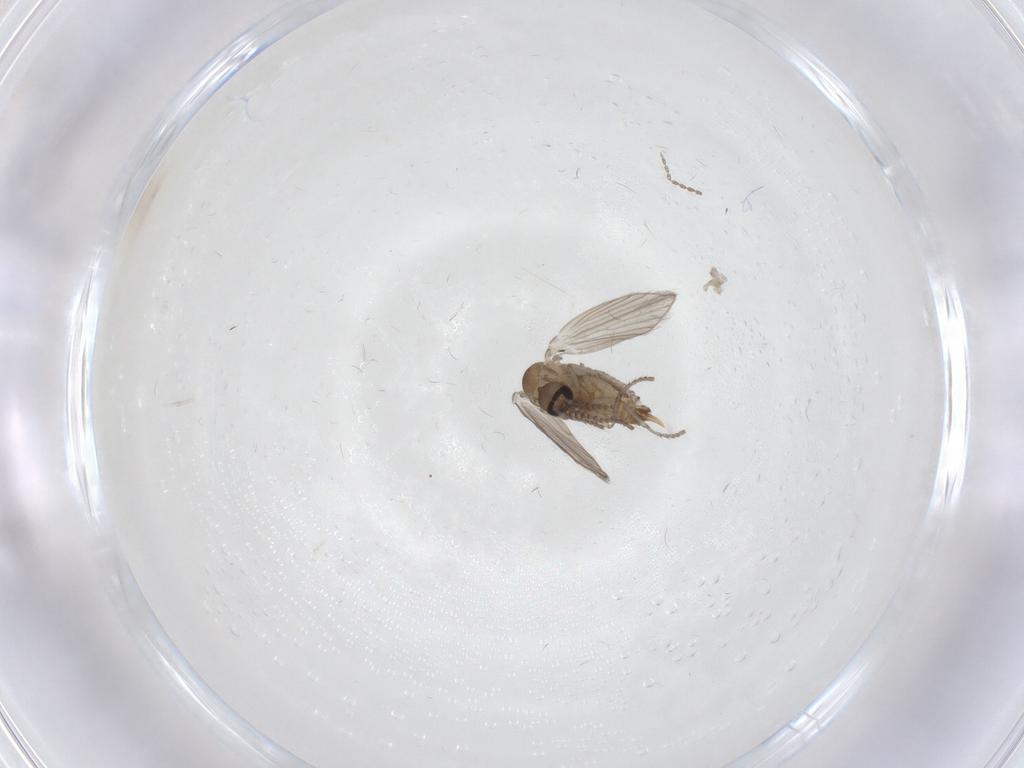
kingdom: Animalia
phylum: Arthropoda
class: Insecta
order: Diptera
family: Psychodidae
